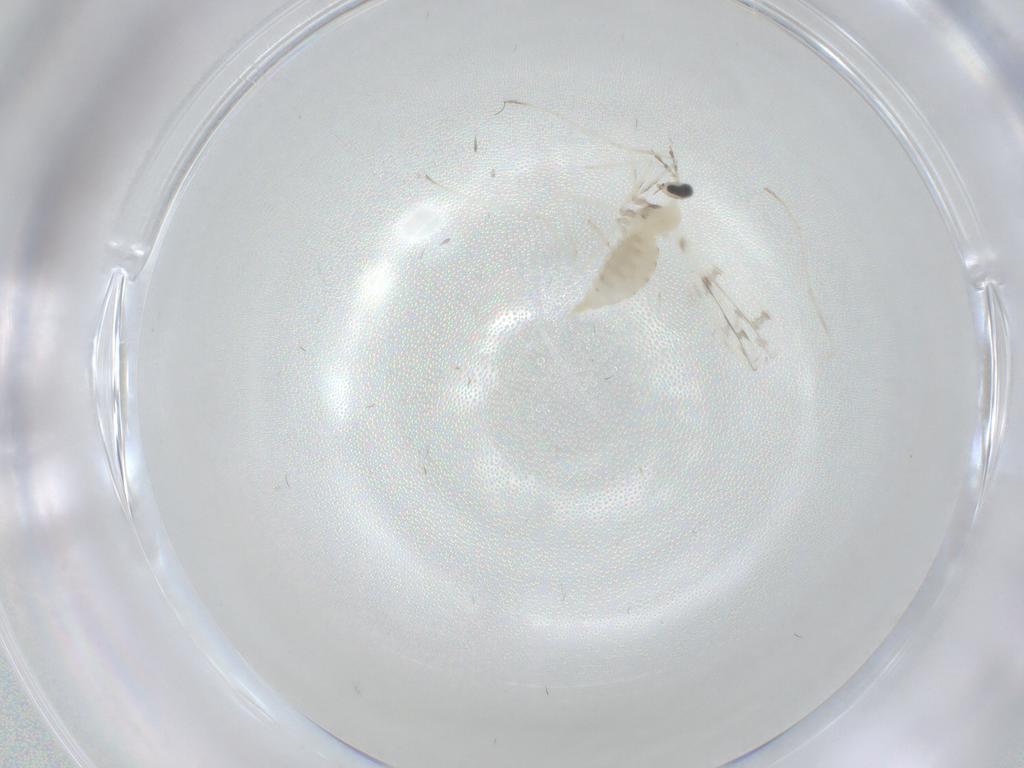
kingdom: Animalia
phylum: Arthropoda
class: Insecta
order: Diptera
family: Cecidomyiidae
